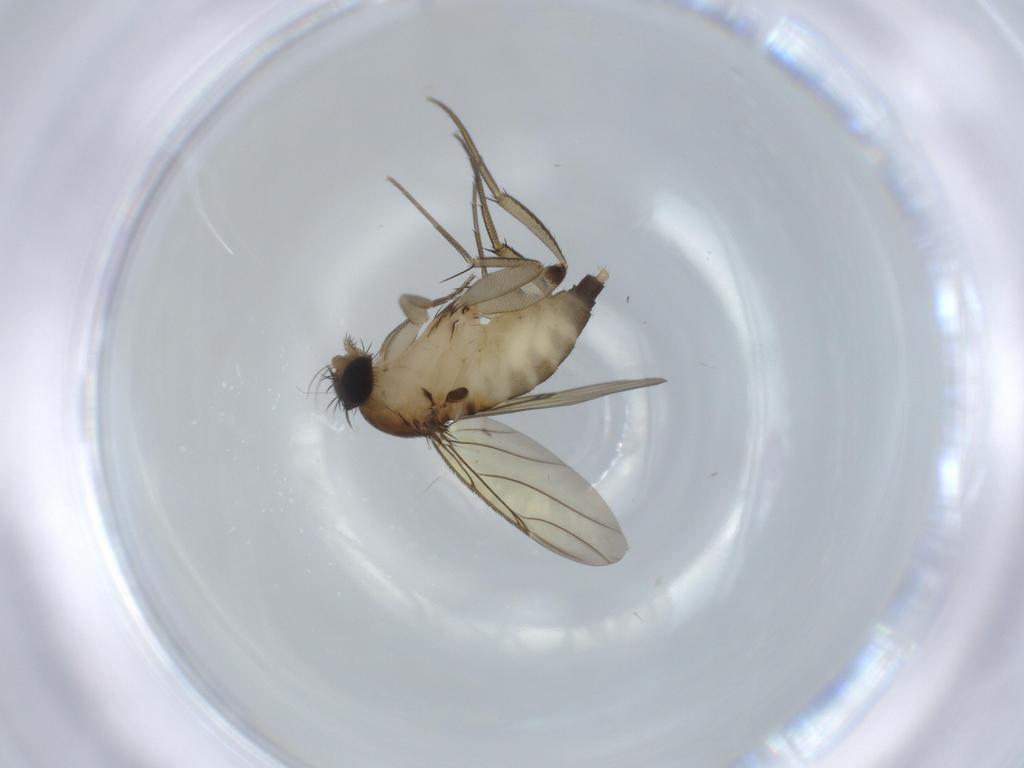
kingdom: Animalia
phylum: Arthropoda
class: Insecta
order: Diptera
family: Phoridae
